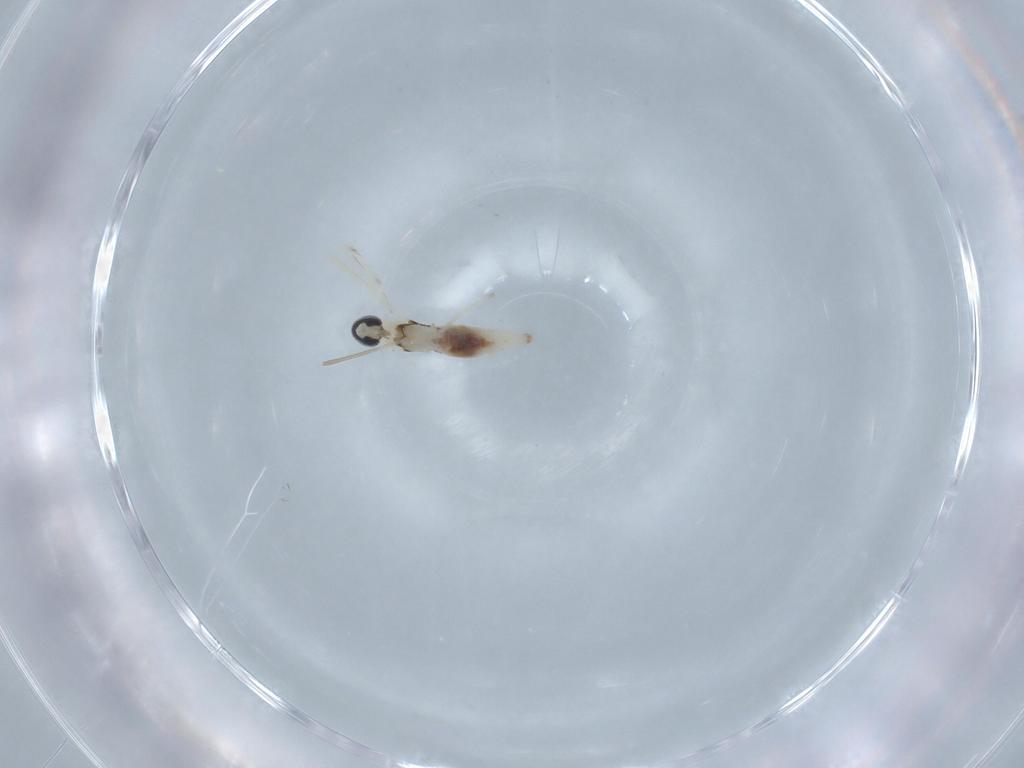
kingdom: Animalia
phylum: Arthropoda
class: Insecta
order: Diptera
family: Cecidomyiidae
